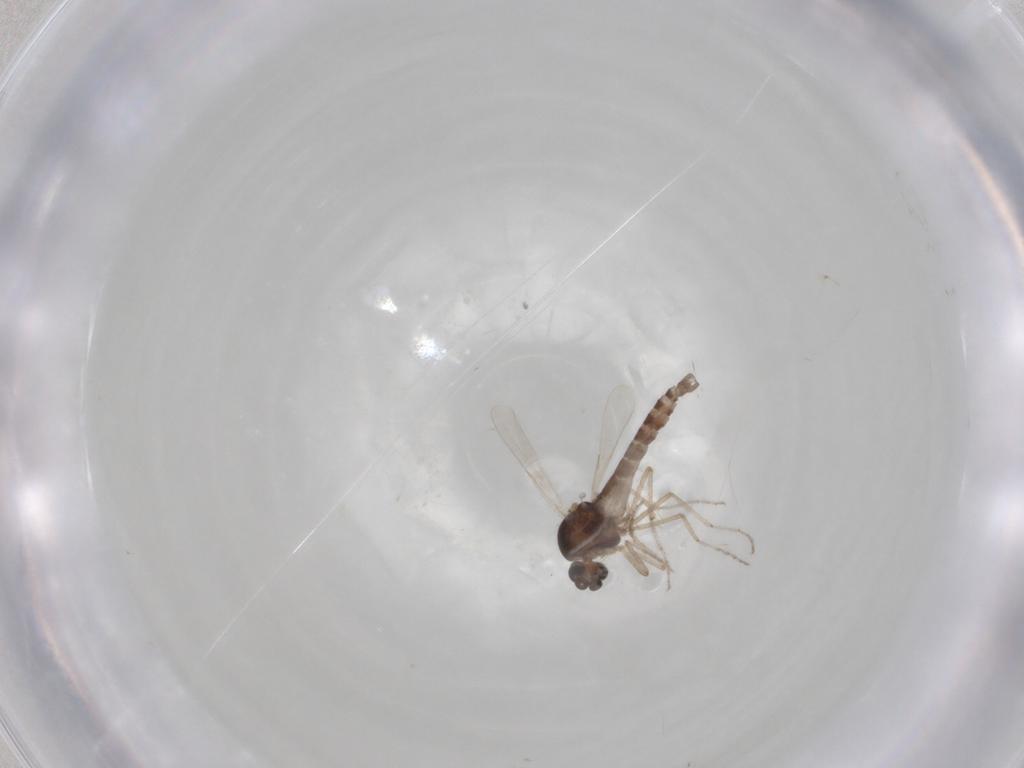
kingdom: Animalia
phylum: Arthropoda
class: Insecta
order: Diptera
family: Ceratopogonidae
